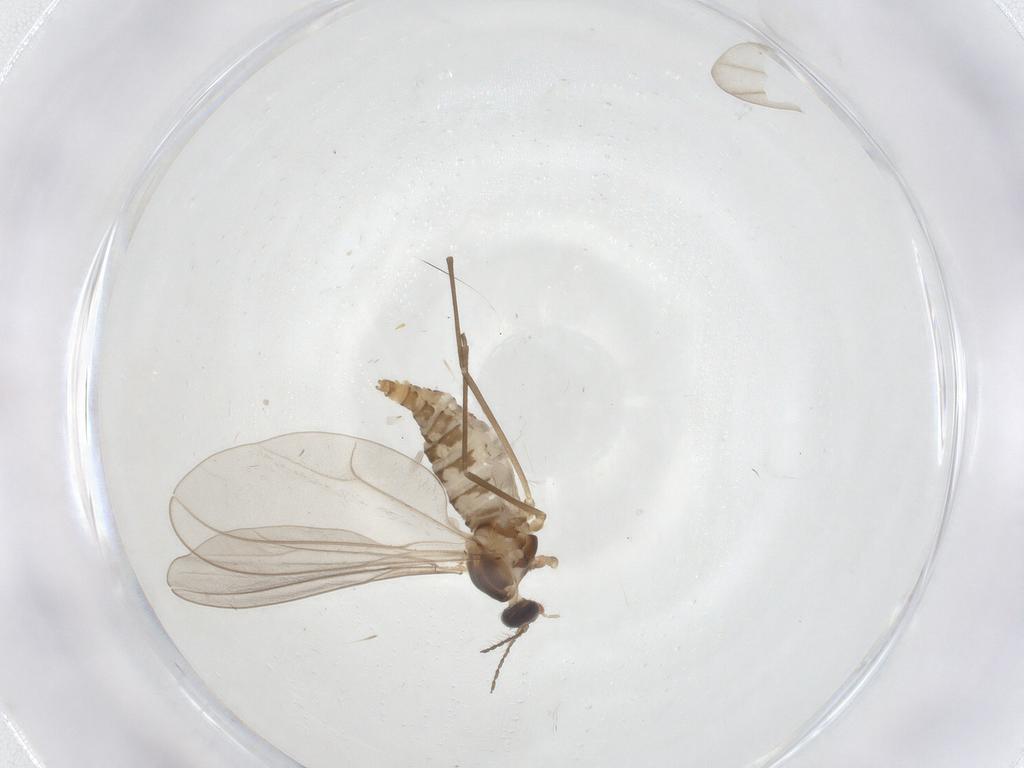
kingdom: Animalia
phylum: Arthropoda
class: Insecta
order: Diptera
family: Cecidomyiidae
